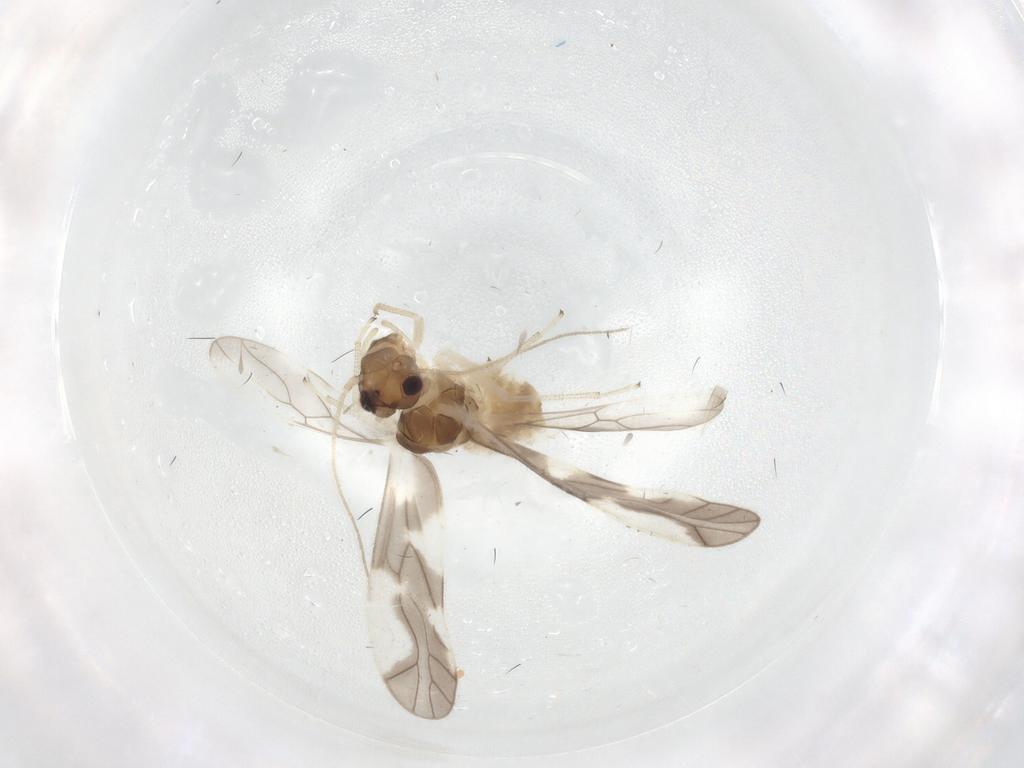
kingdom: Animalia
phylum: Arthropoda
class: Insecta
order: Psocodea
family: Caeciliusidae
